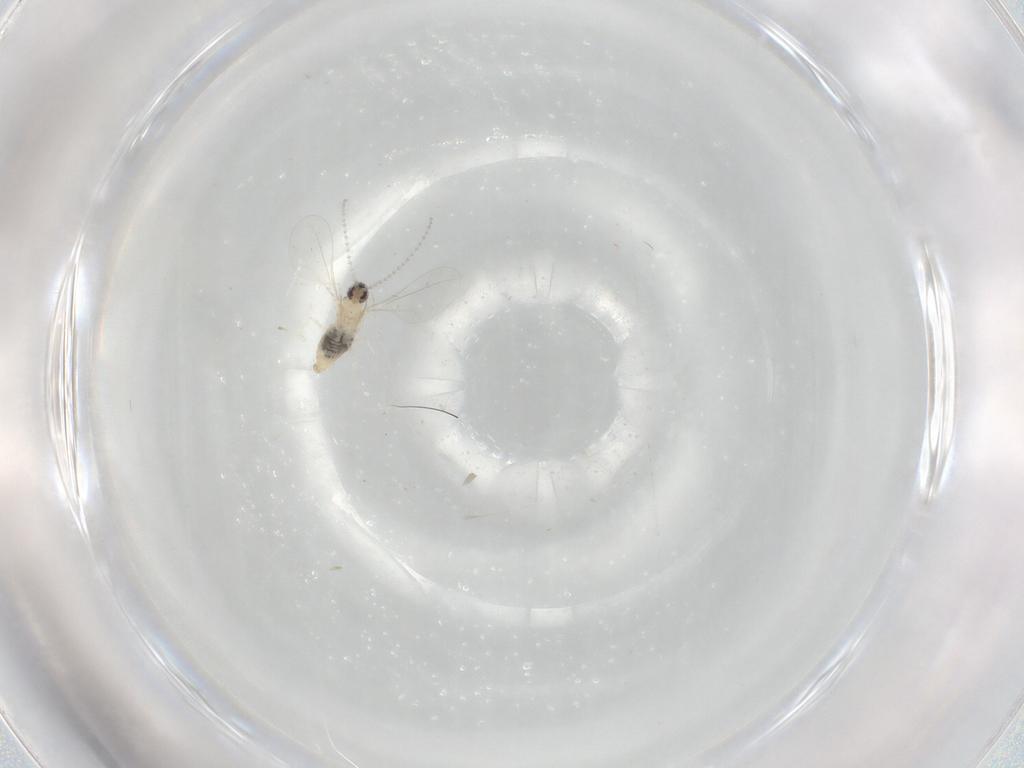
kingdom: Animalia
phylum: Arthropoda
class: Insecta
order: Diptera
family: Cecidomyiidae
